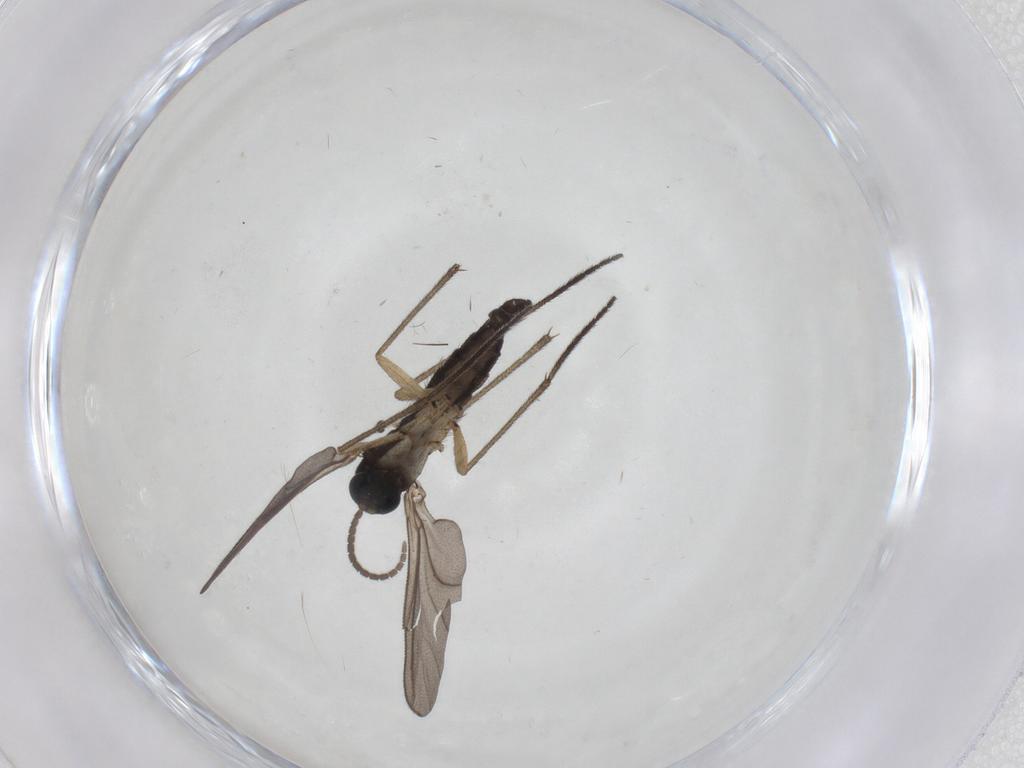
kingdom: Animalia
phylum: Arthropoda
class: Insecta
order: Diptera
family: Sciaridae
